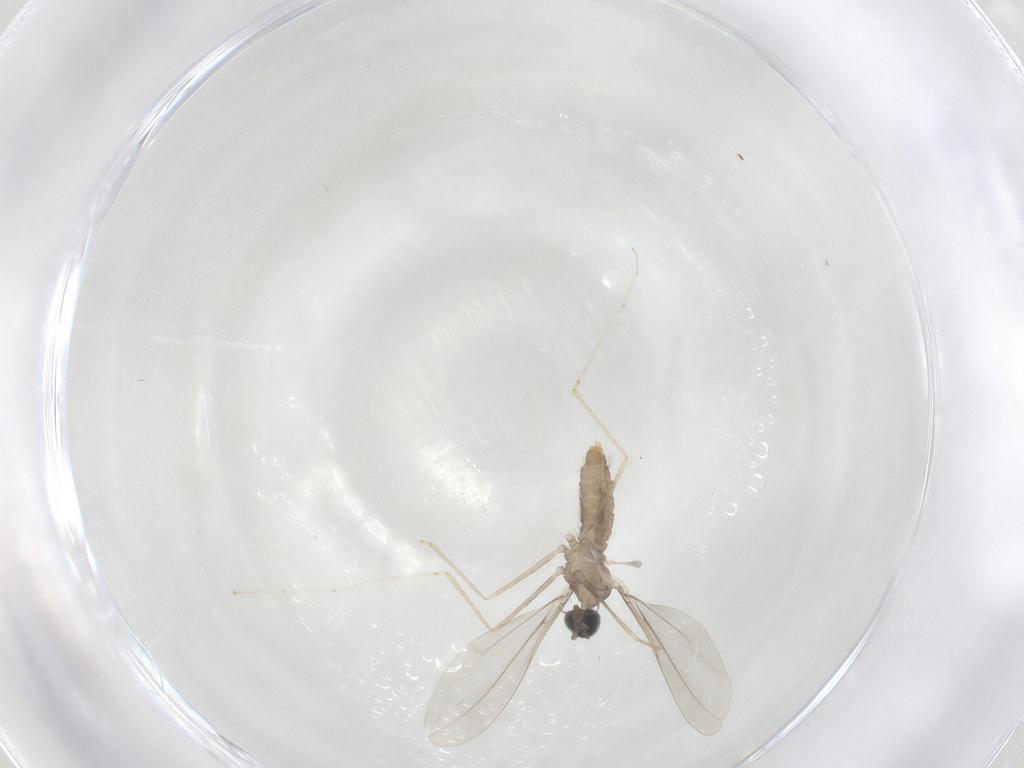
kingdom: Animalia
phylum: Arthropoda
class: Insecta
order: Diptera
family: Cecidomyiidae
